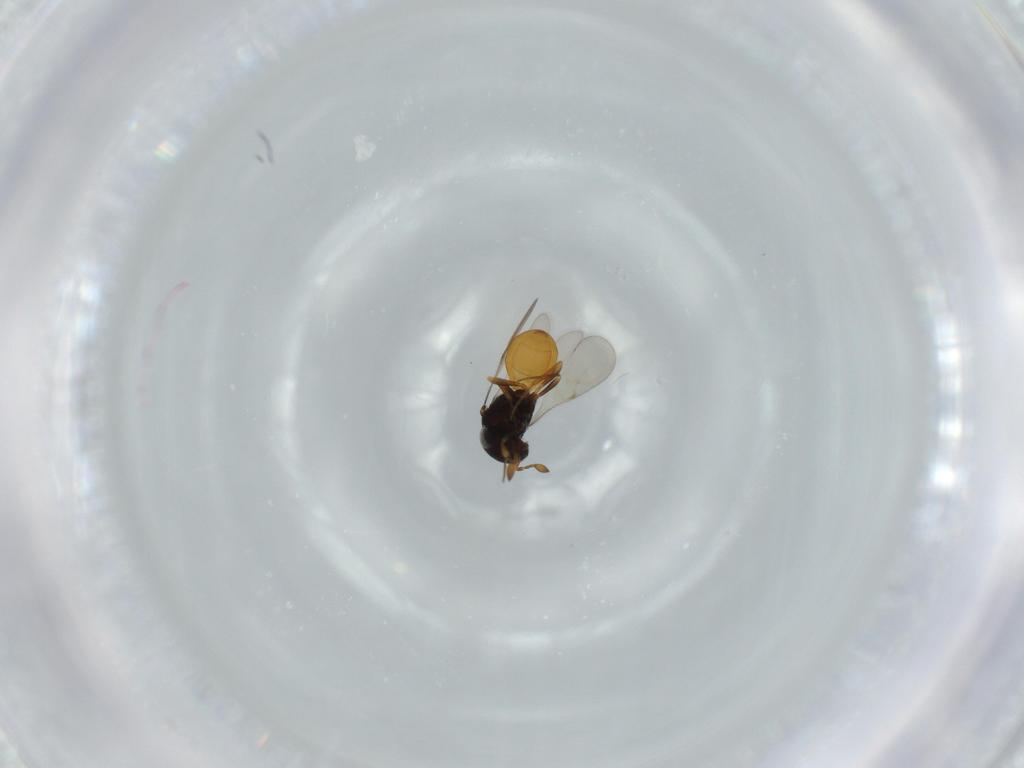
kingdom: Animalia
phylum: Arthropoda
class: Insecta
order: Hymenoptera
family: Scelionidae
